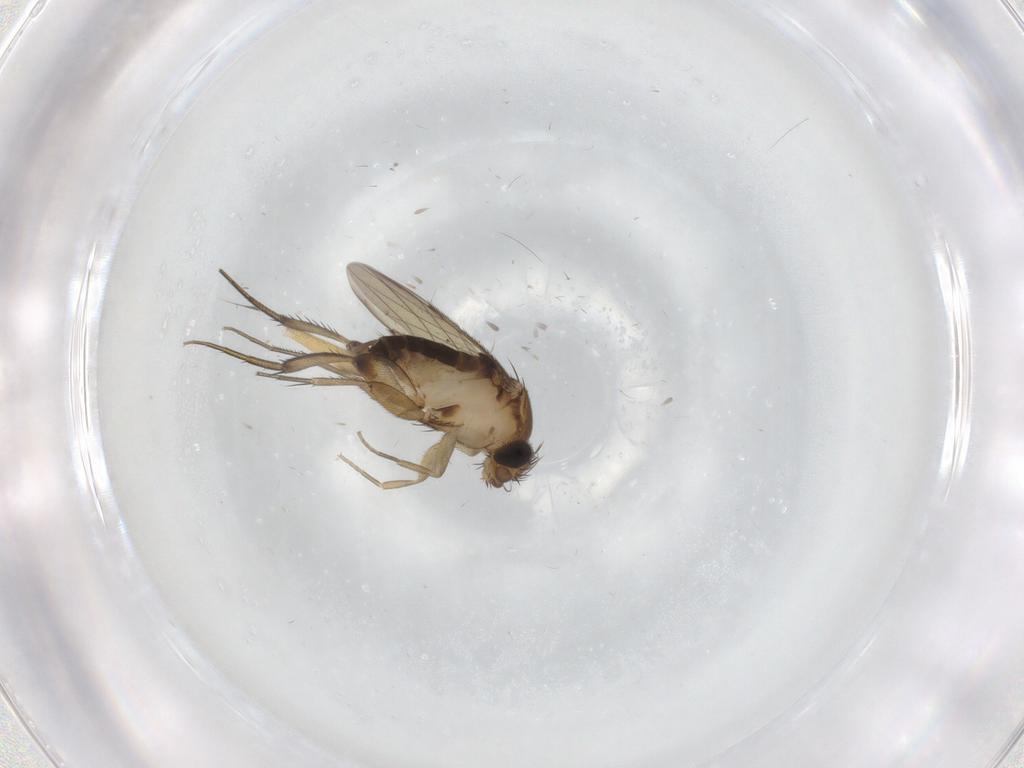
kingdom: Animalia
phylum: Arthropoda
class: Insecta
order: Diptera
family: Phoridae
